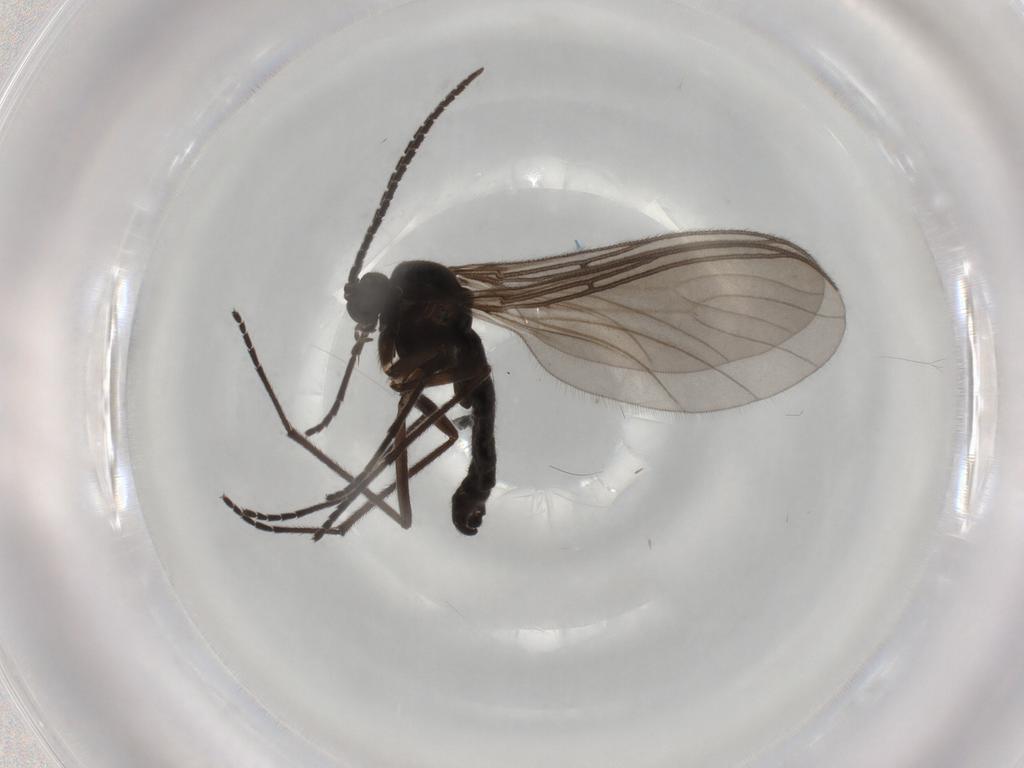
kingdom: Animalia
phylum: Arthropoda
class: Insecta
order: Diptera
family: Sciaridae
